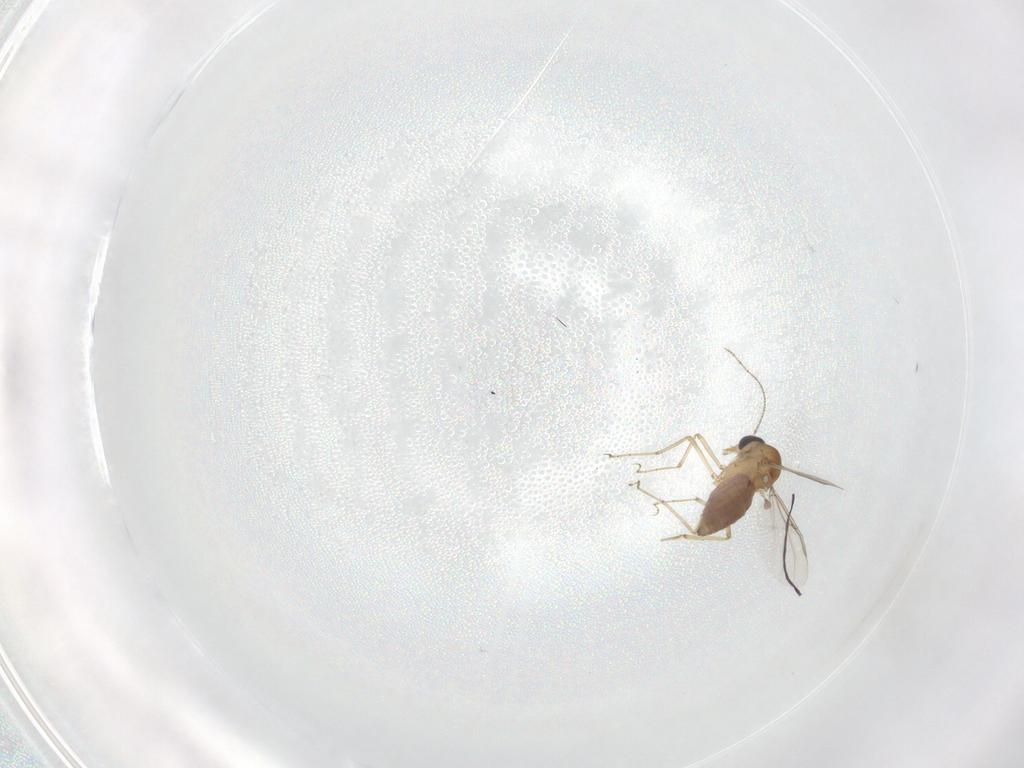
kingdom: Animalia
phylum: Arthropoda
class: Insecta
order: Diptera
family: Ceratopogonidae
